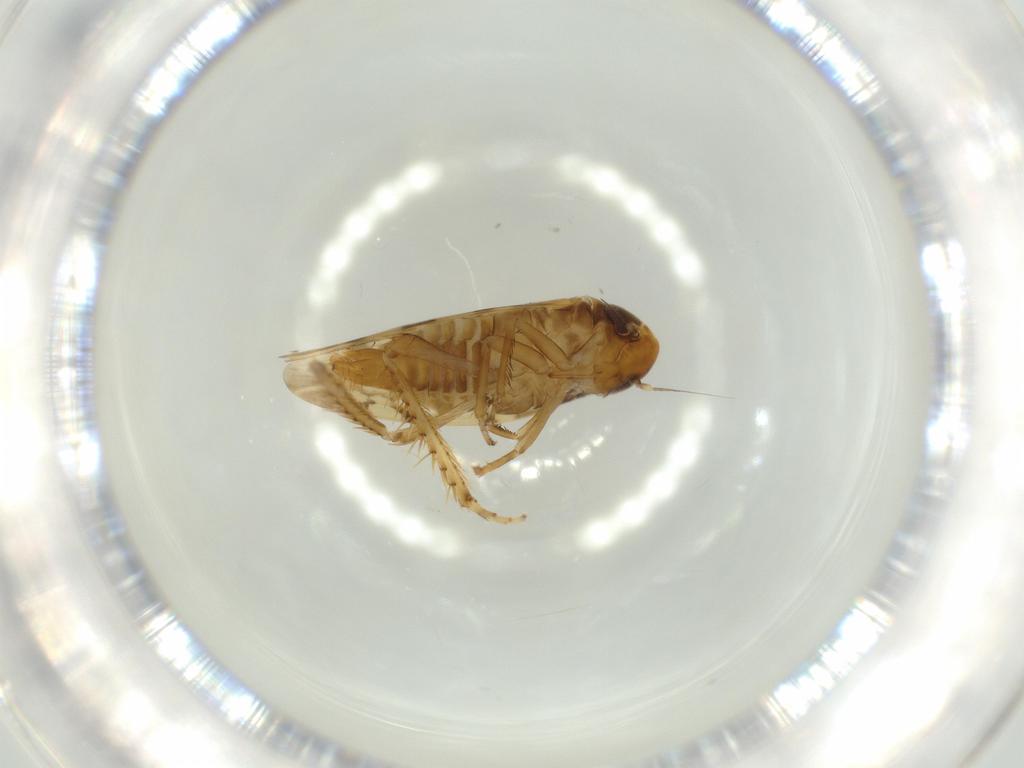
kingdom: Animalia
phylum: Arthropoda
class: Insecta
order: Hemiptera
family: Cicadellidae
